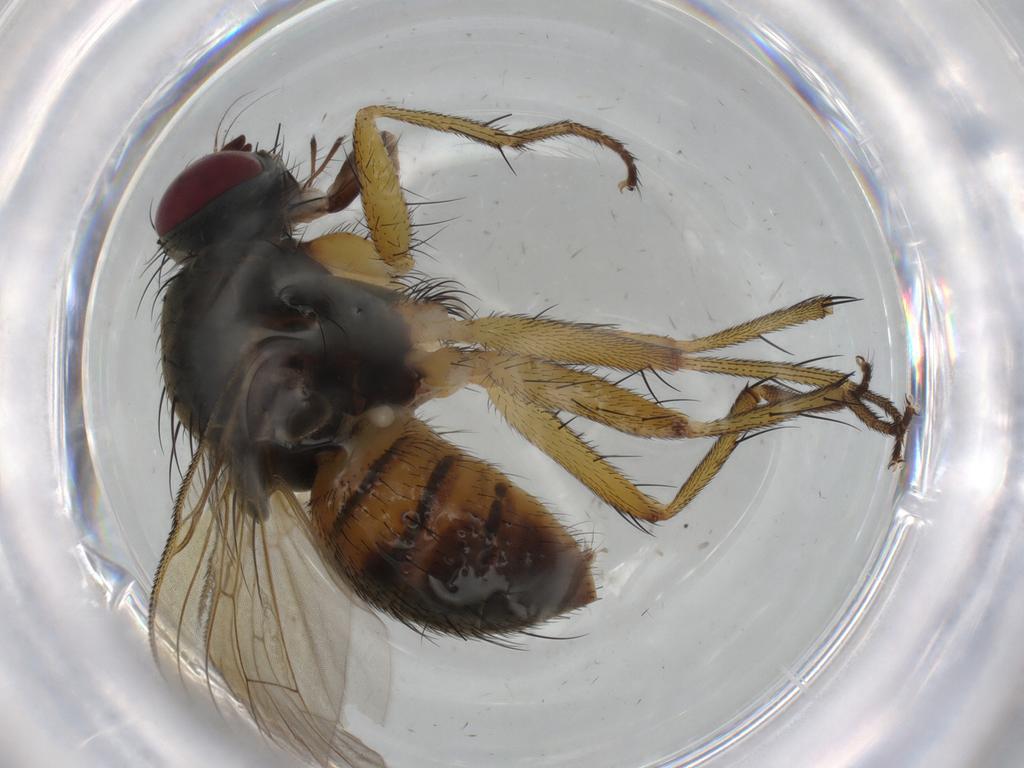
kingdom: Animalia
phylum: Arthropoda
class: Insecta
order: Diptera
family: Muscidae
